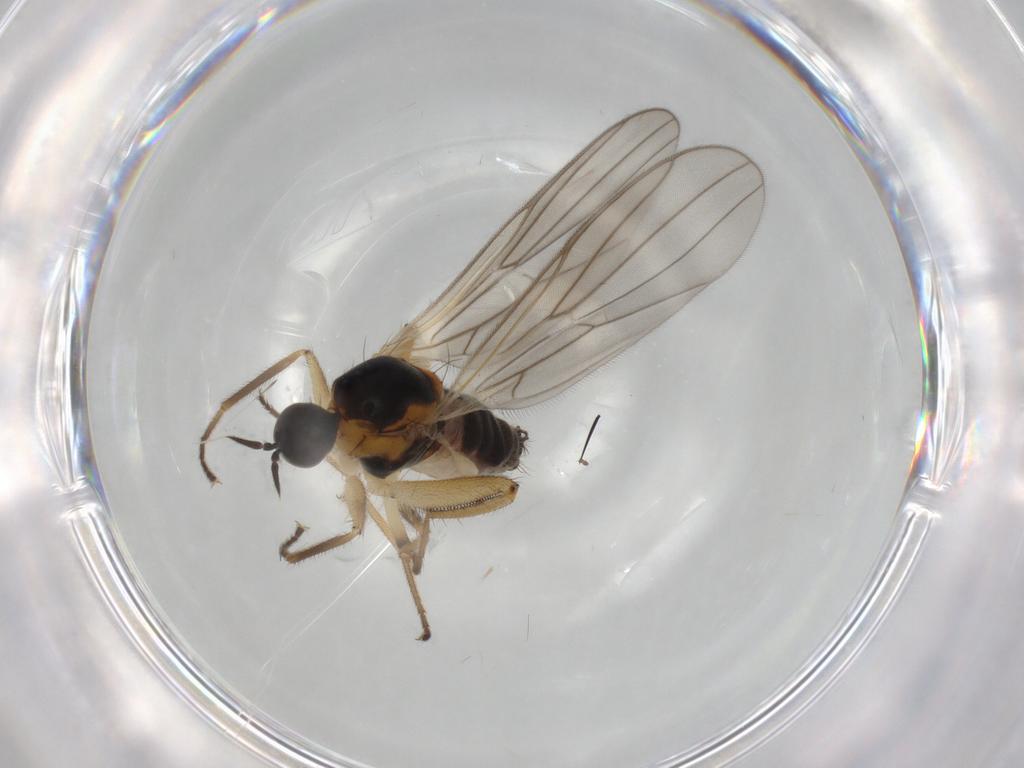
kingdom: Animalia
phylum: Arthropoda
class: Insecta
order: Diptera
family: Hybotidae
